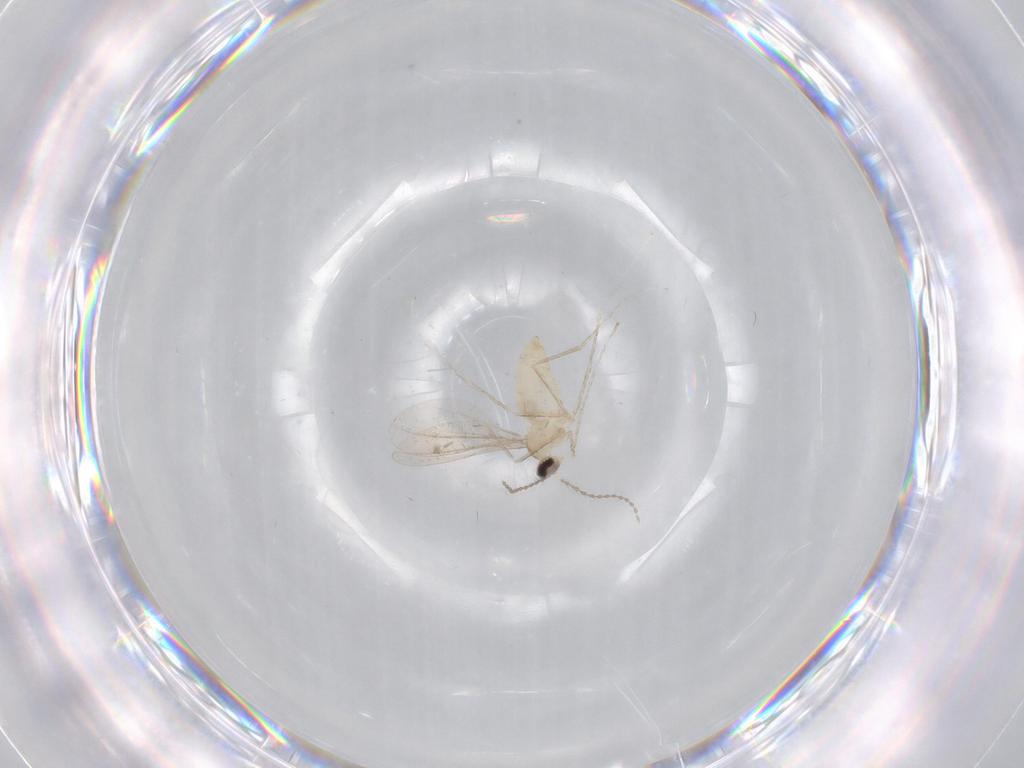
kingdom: Animalia
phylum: Arthropoda
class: Insecta
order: Diptera
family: Cecidomyiidae
